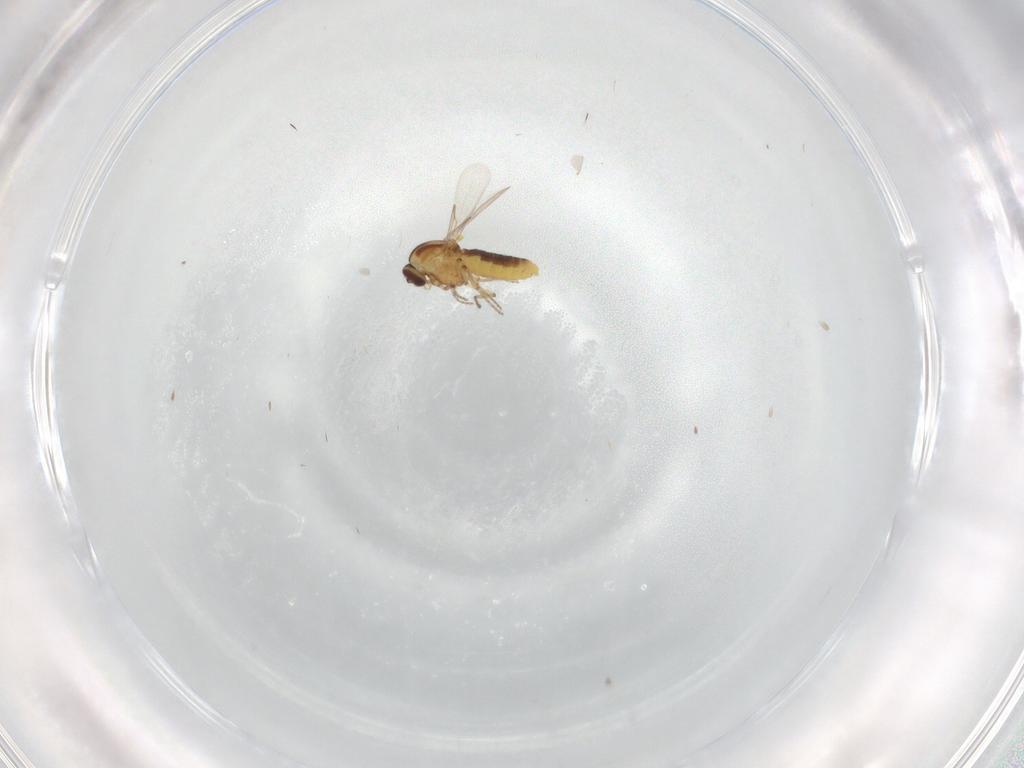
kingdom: Animalia
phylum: Arthropoda
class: Insecta
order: Diptera
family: Ceratopogonidae
